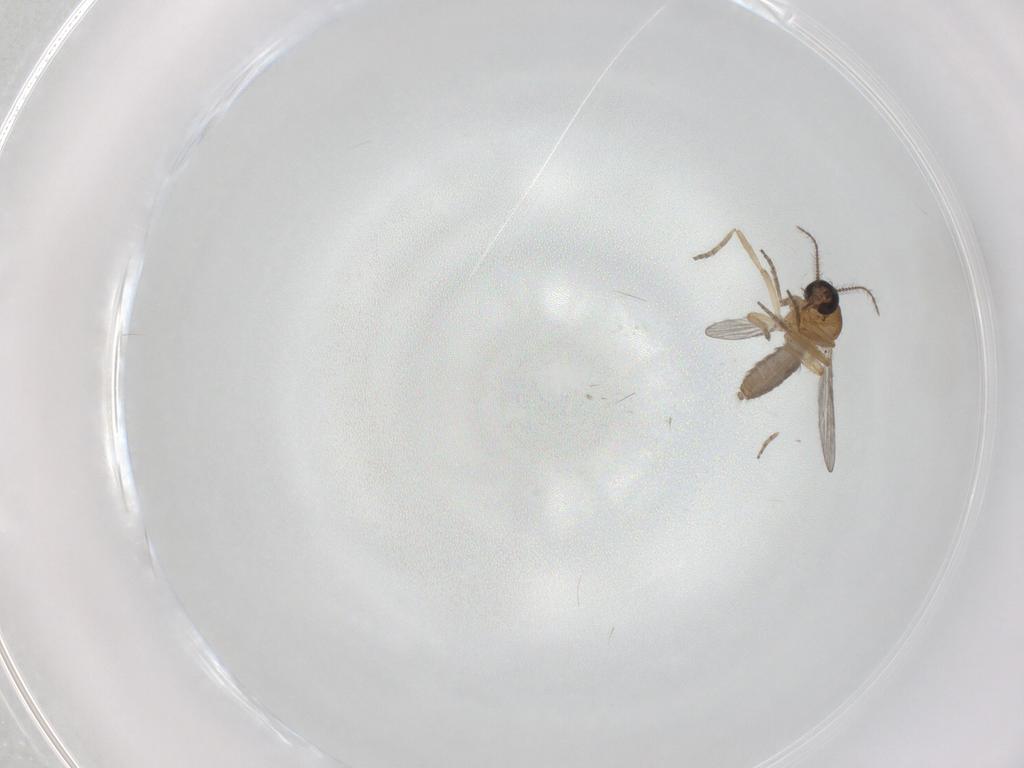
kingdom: Animalia
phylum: Arthropoda
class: Insecta
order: Diptera
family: Ceratopogonidae
